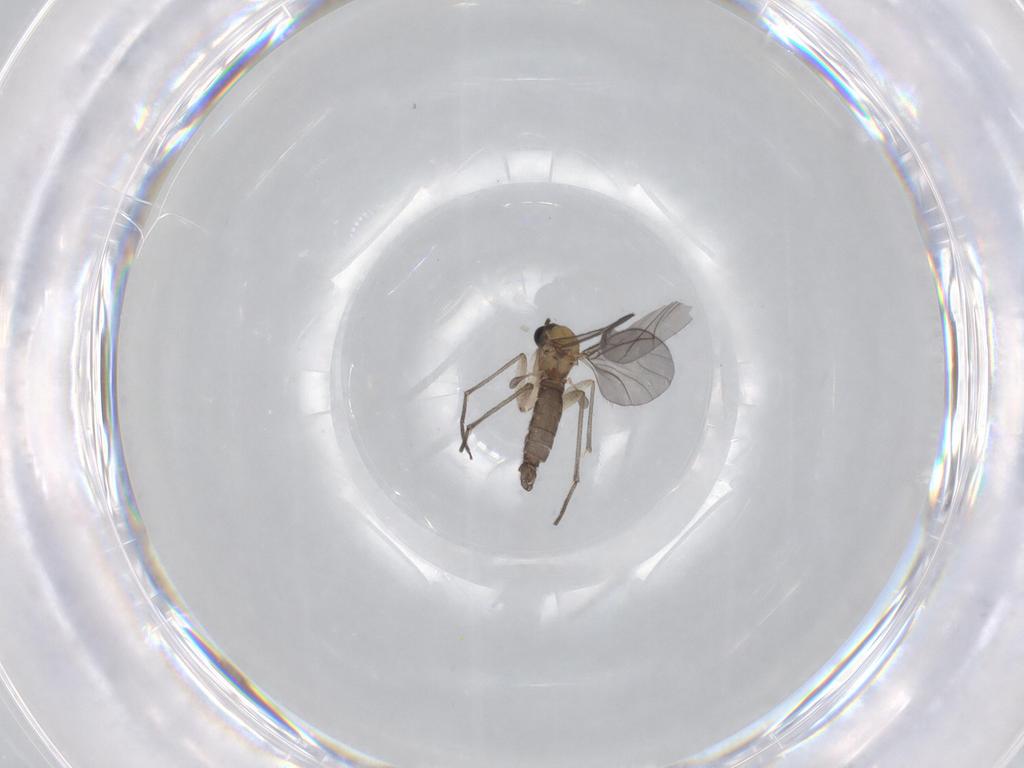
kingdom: Animalia
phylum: Arthropoda
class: Insecta
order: Diptera
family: Sciaridae
